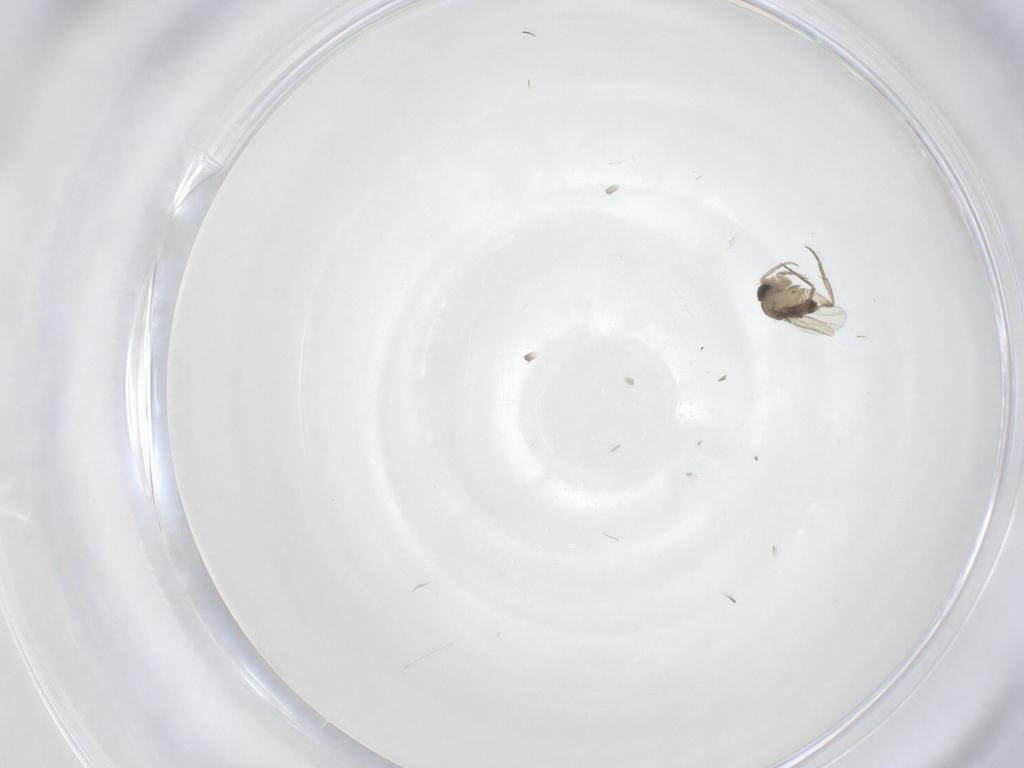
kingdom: Animalia
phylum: Arthropoda
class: Insecta
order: Diptera
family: Phoridae
